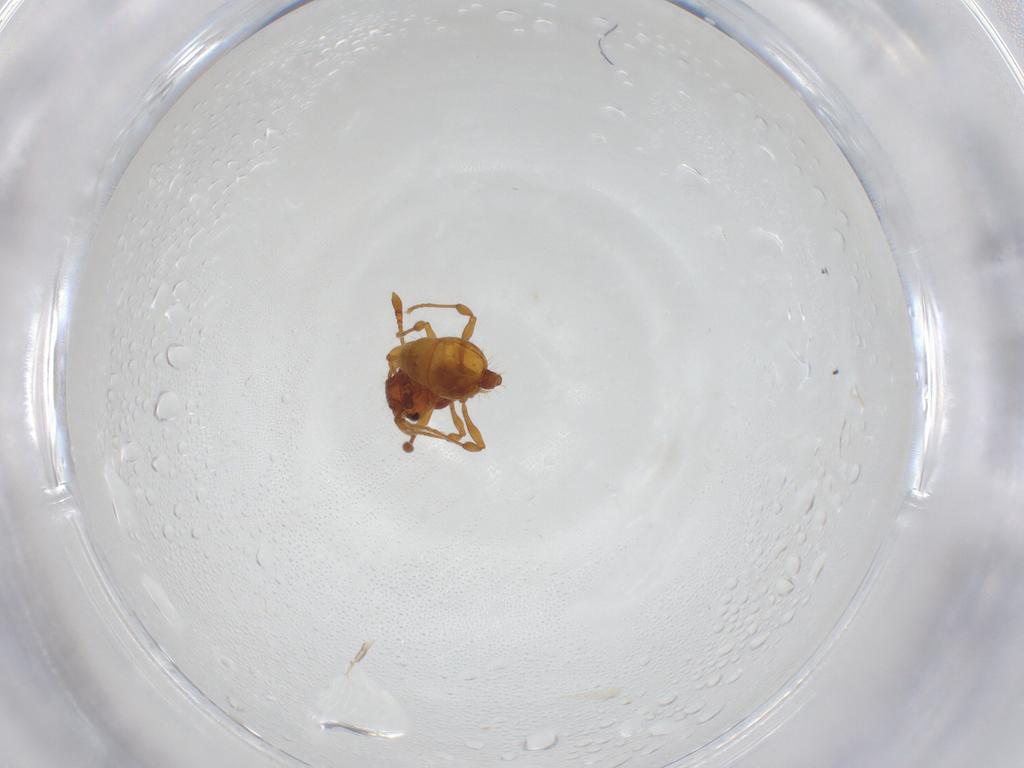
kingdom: Animalia
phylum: Arthropoda
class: Insecta
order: Hymenoptera
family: Formicidae
